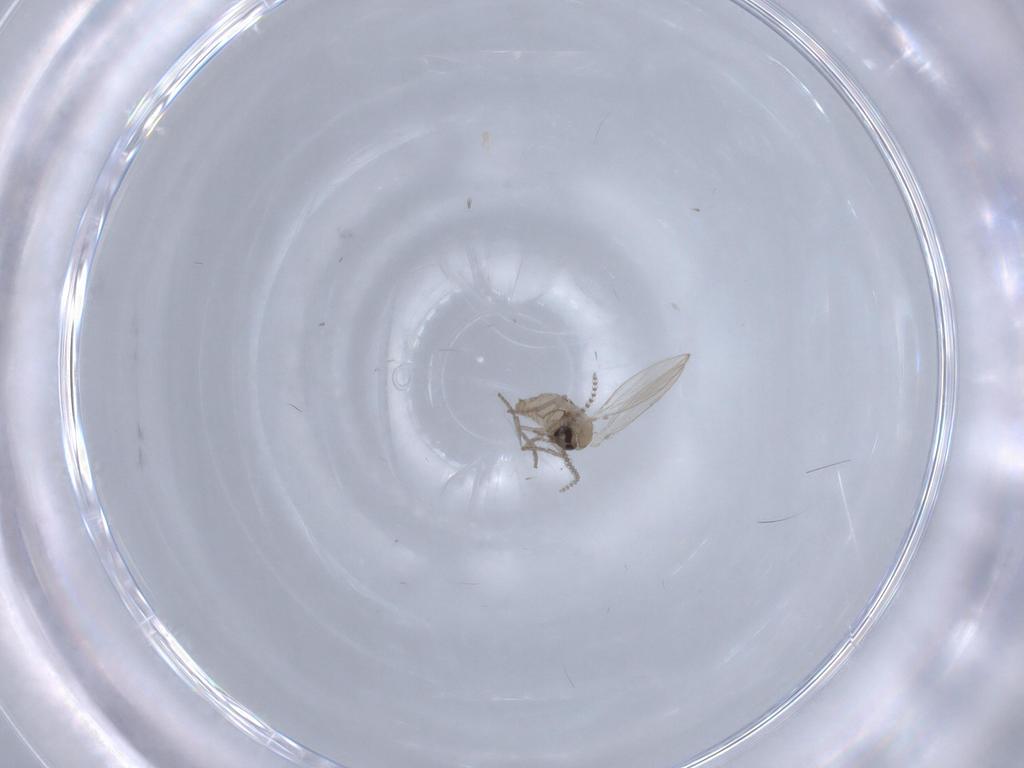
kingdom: Animalia
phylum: Arthropoda
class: Insecta
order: Diptera
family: Psychodidae
